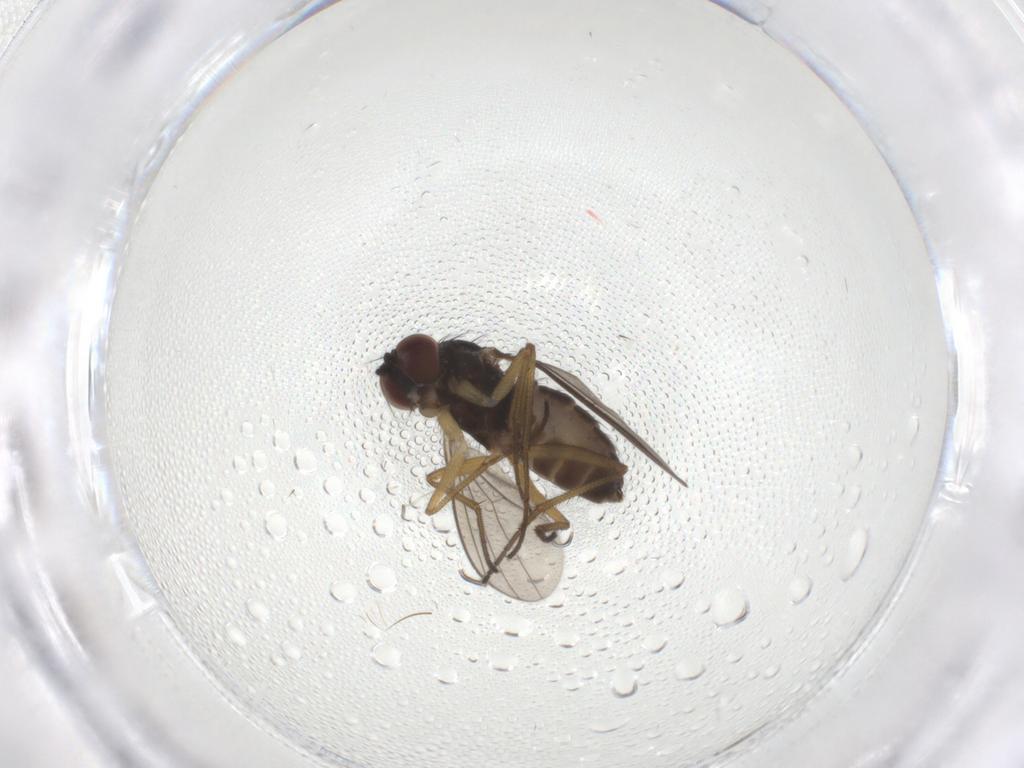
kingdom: Animalia
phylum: Arthropoda
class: Insecta
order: Diptera
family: Dolichopodidae
